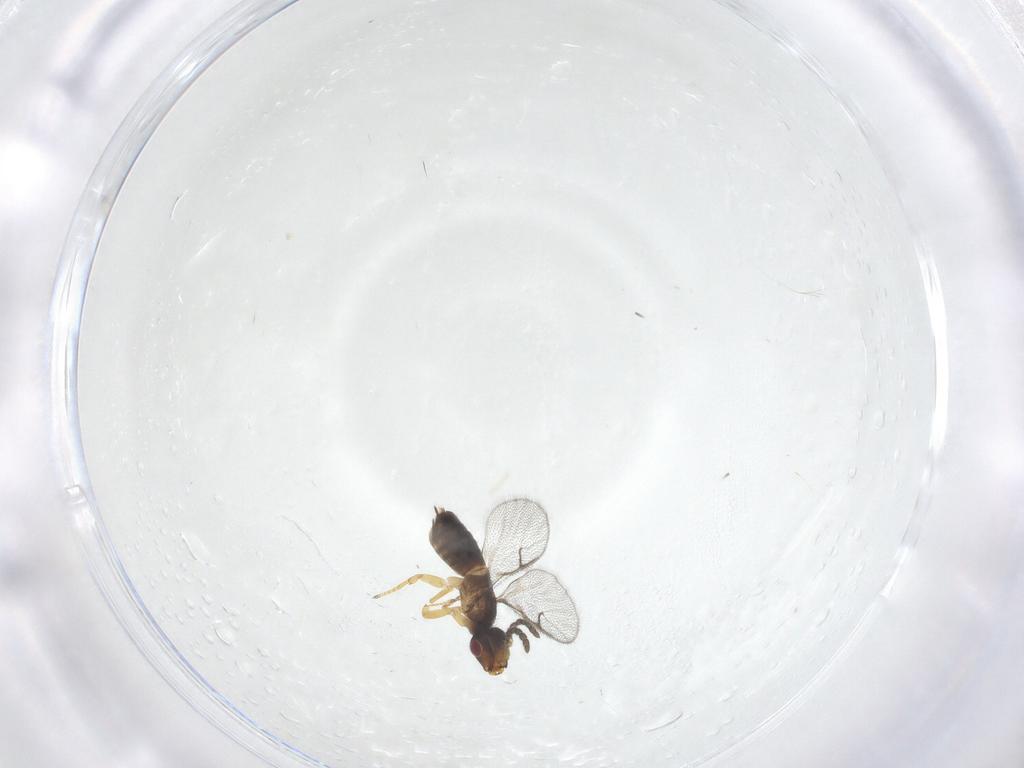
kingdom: Animalia
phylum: Arthropoda
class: Insecta
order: Hymenoptera
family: Agaonidae
